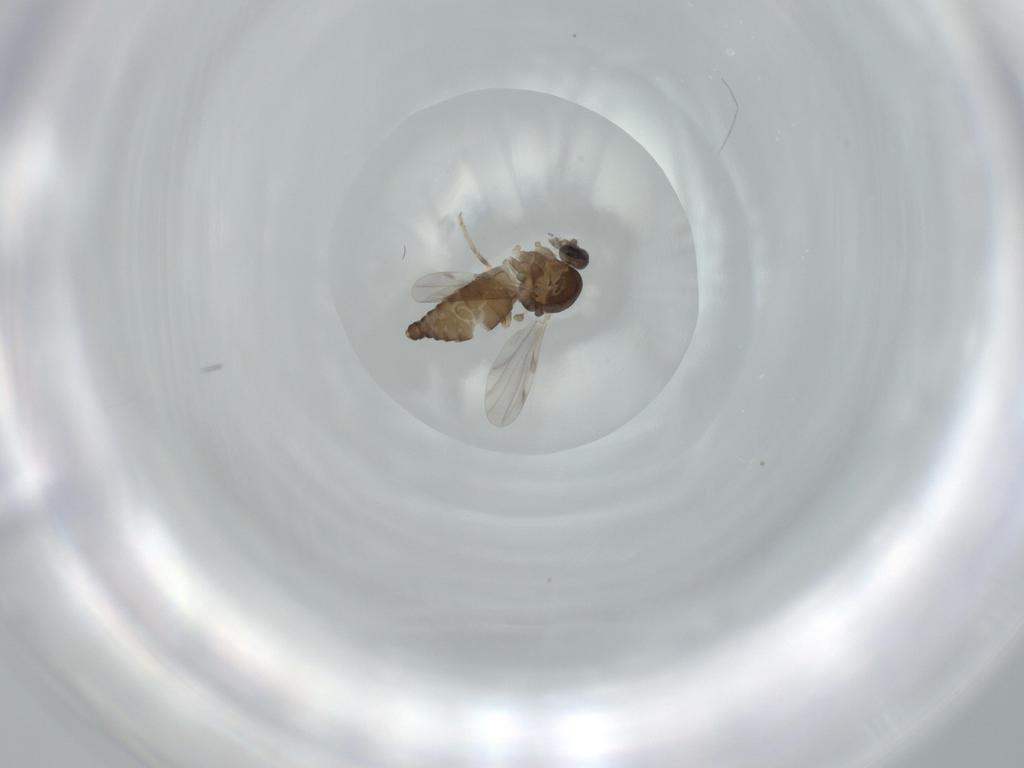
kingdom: Animalia
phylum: Arthropoda
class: Insecta
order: Diptera
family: Ceratopogonidae
